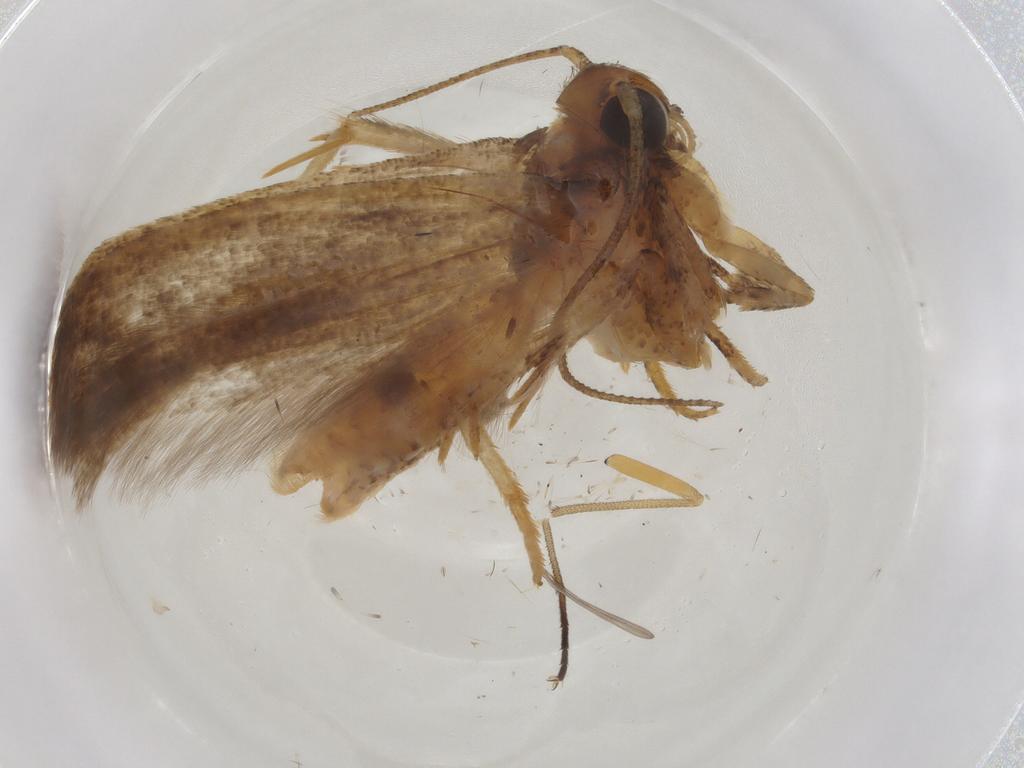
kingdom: Animalia
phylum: Arthropoda
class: Insecta
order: Lepidoptera
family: Gelechiidae
